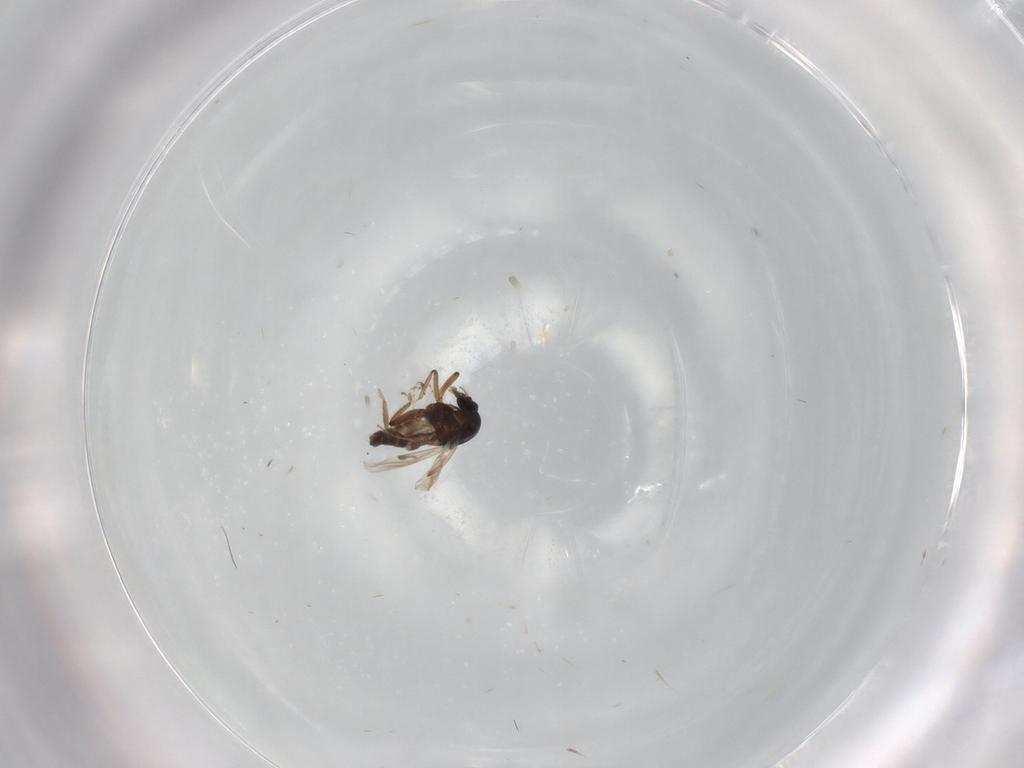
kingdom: Animalia
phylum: Arthropoda
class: Insecta
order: Diptera
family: Ceratopogonidae
